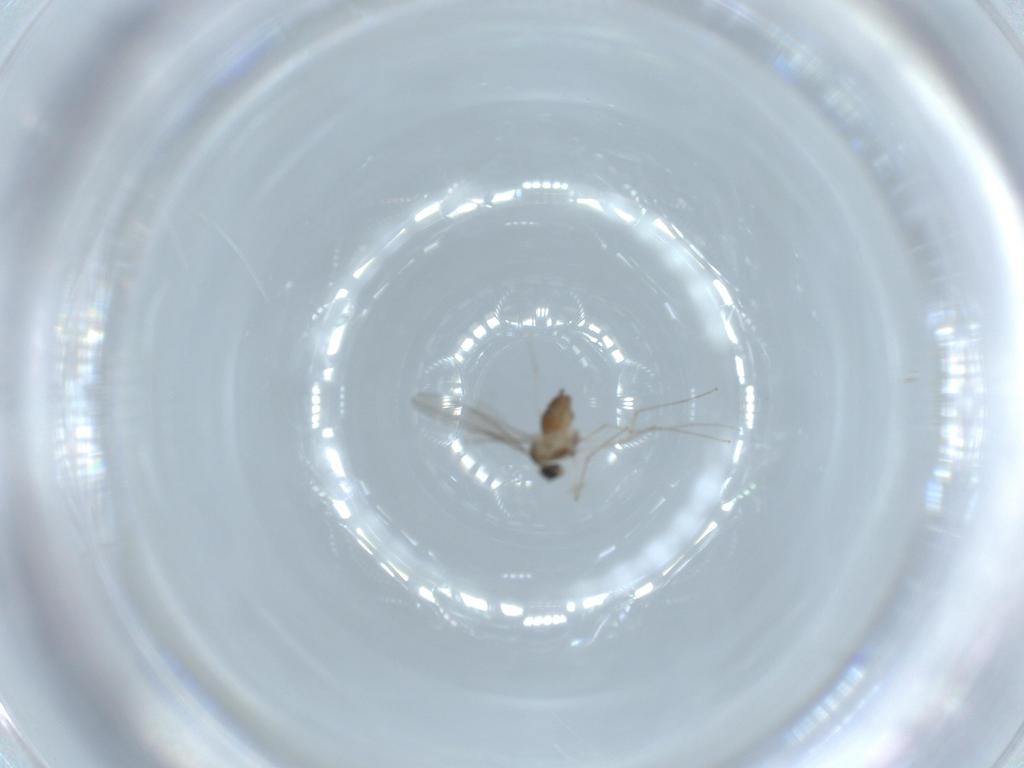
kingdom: Animalia
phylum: Arthropoda
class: Insecta
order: Diptera
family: Cecidomyiidae
